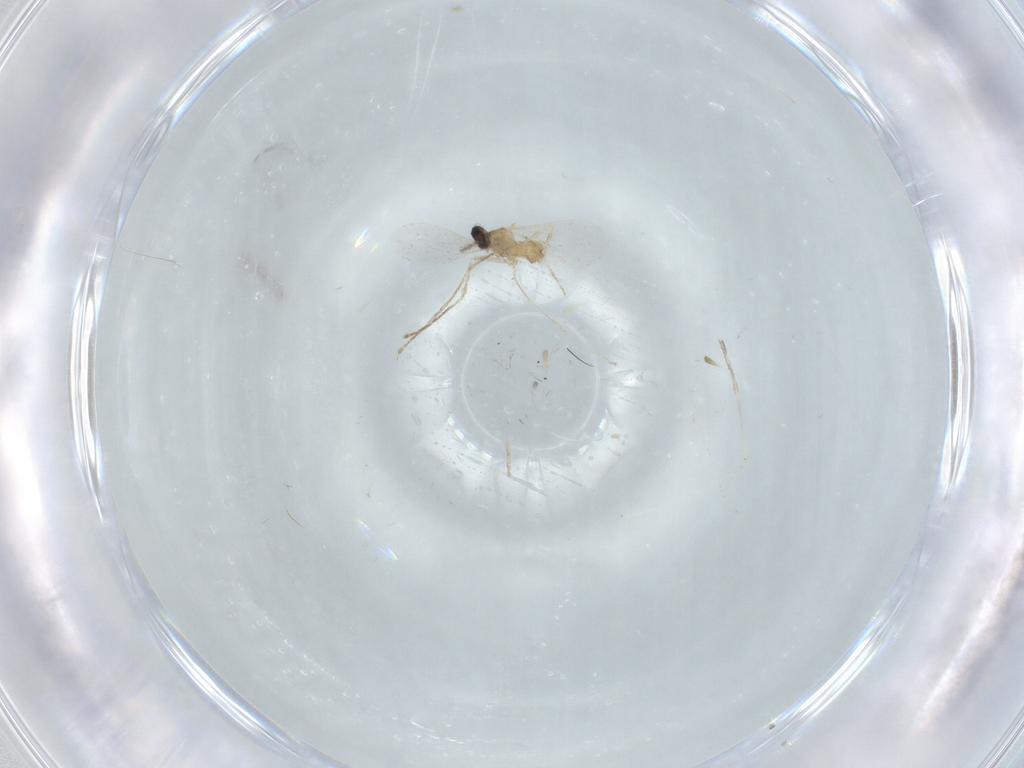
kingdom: Animalia
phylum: Arthropoda
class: Insecta
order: Diptera
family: Cecidomyiidae
